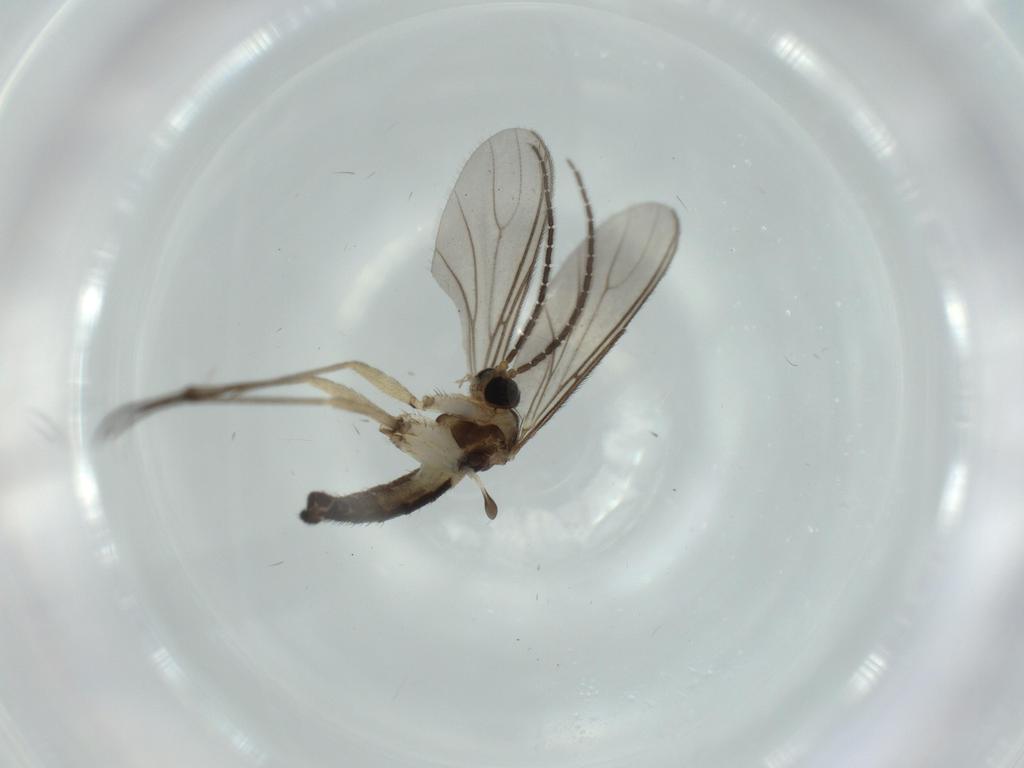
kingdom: Animalia
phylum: Arthropoda
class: Insecta
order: Diptera
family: Sciaridae
